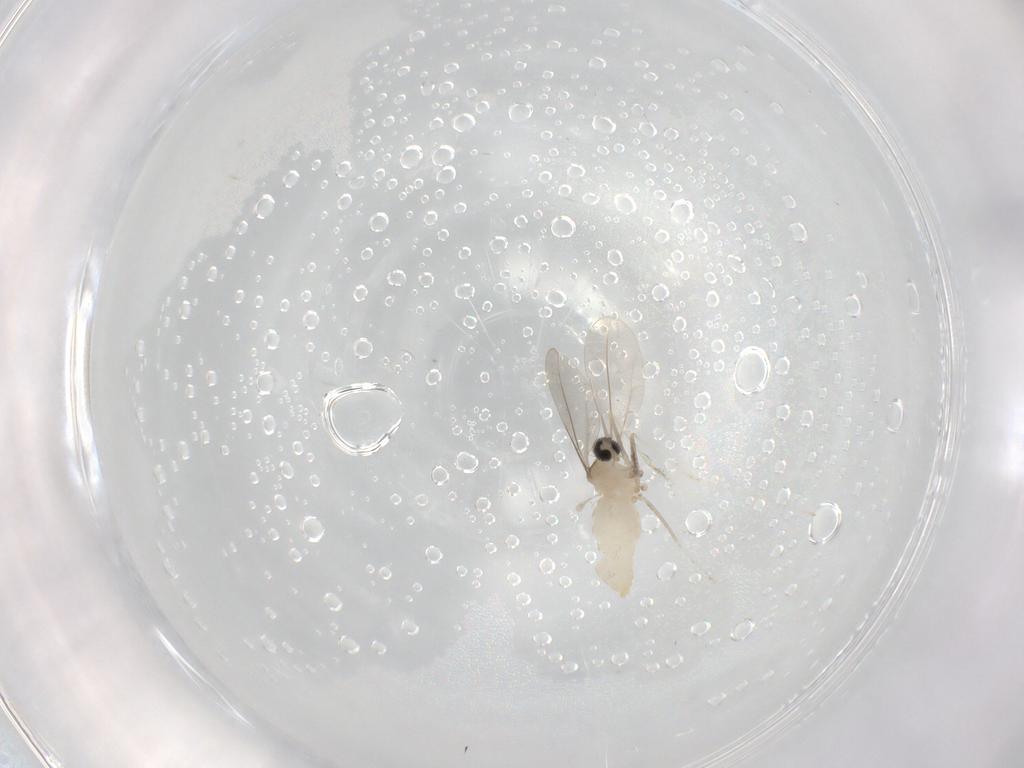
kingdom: Animalia
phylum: Arthropoda
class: Insecta
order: Diptera
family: Cecidomyiidae
